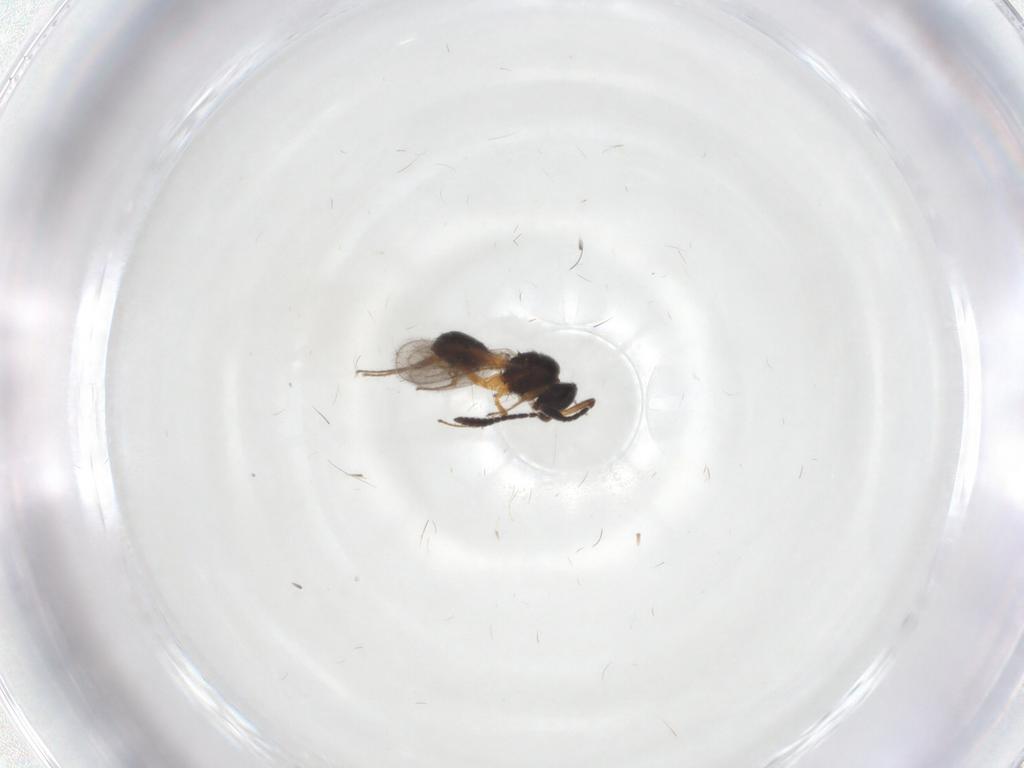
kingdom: Animalia
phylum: Arthropoda
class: Insecta
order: Hymenoptera
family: Scelionidae
